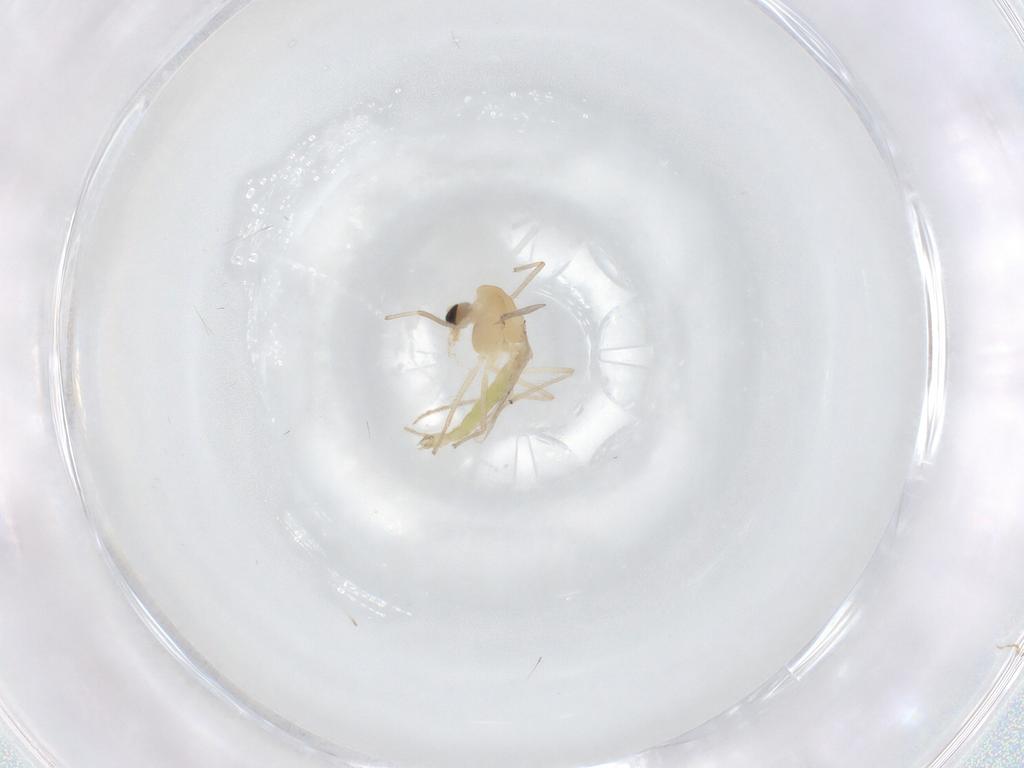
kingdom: Animalia
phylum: Arthropoda
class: Insecta
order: Diptera
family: Chironomidae
